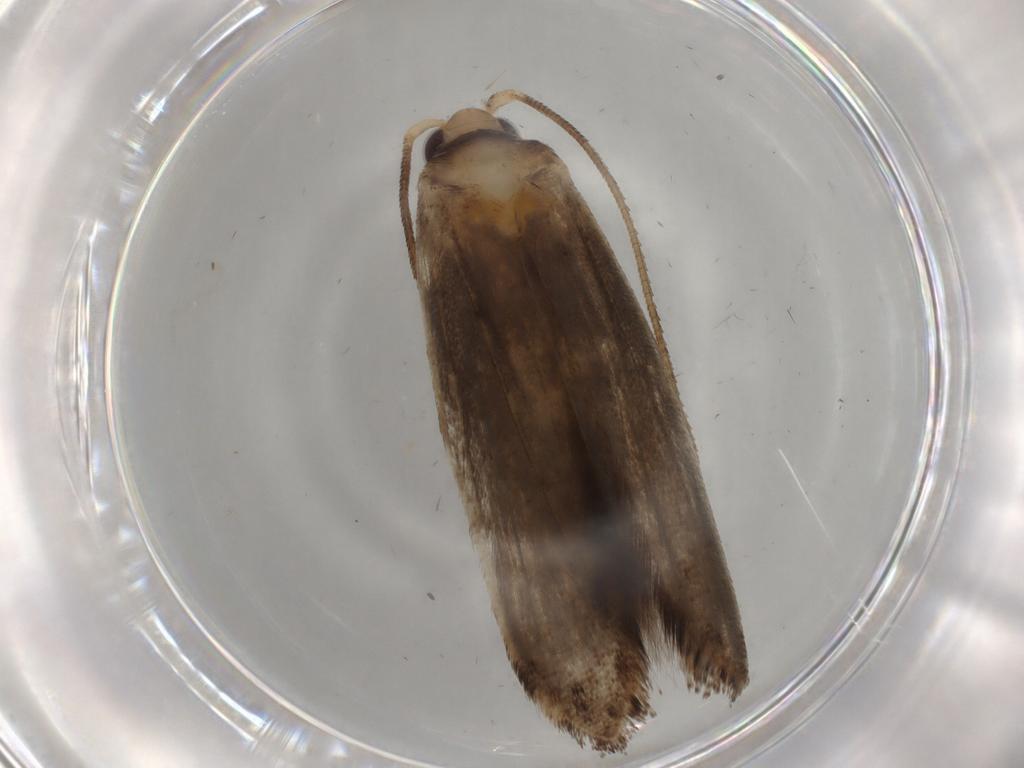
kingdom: Animalia
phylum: Arthropoda
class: Insecta
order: Lepidoptera
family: Yponomeutidae
